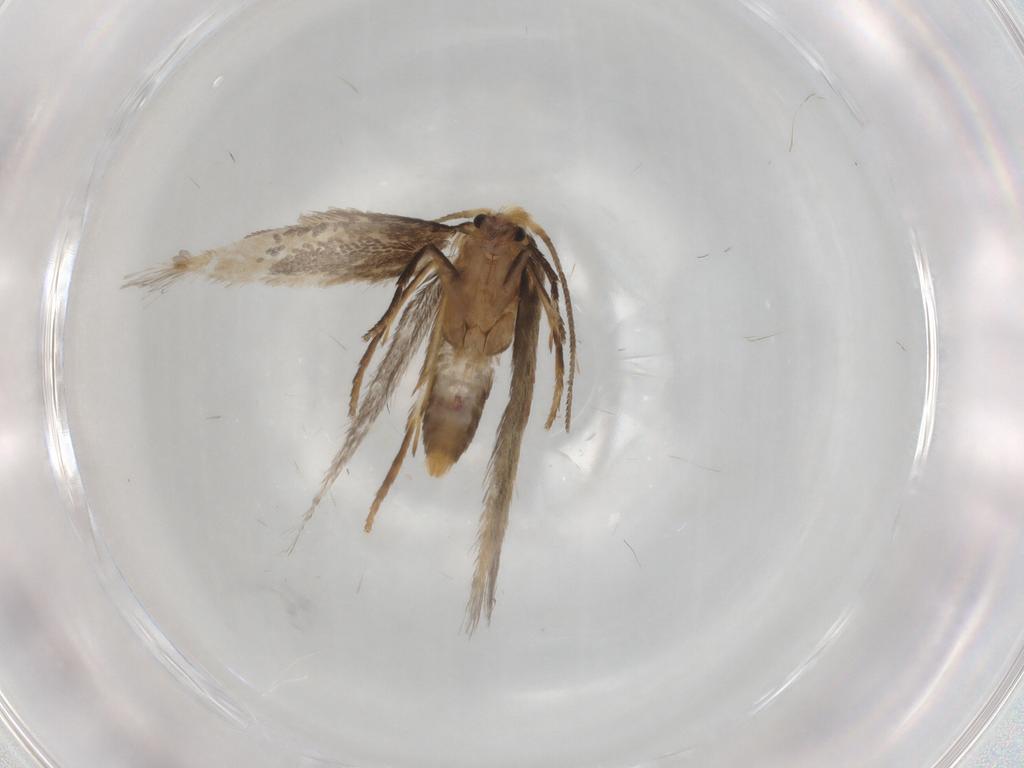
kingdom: Animalia
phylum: Arthropoda
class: Insecta
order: Lepidoptera
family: Nepticulidae
